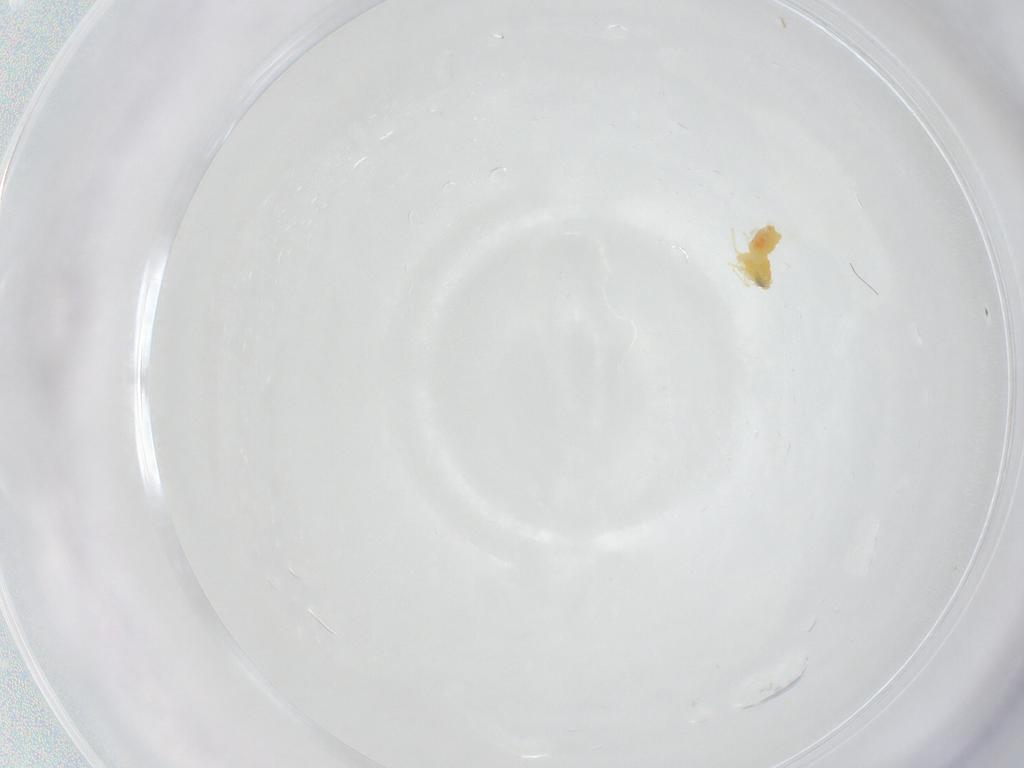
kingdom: Animalia
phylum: Arthropoda
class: Insecta
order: Hemiptera
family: Aleyrodidae
